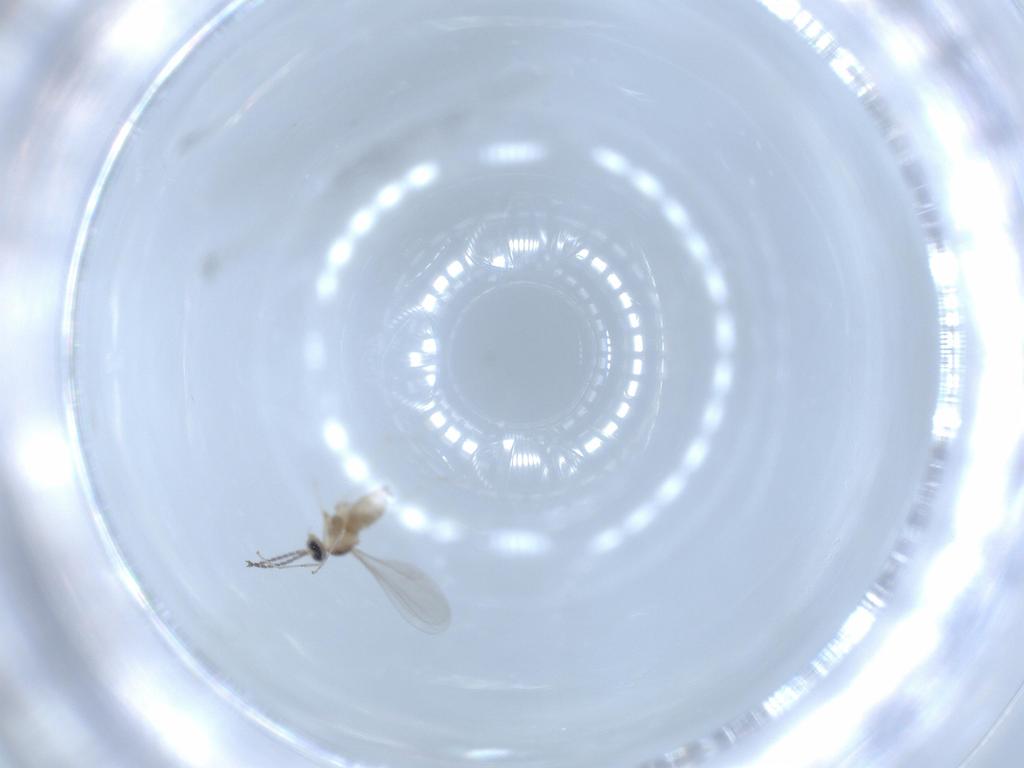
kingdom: Animalia
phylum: Arthropoda
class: Insecta
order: Diptera
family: Cecidomyiidae
